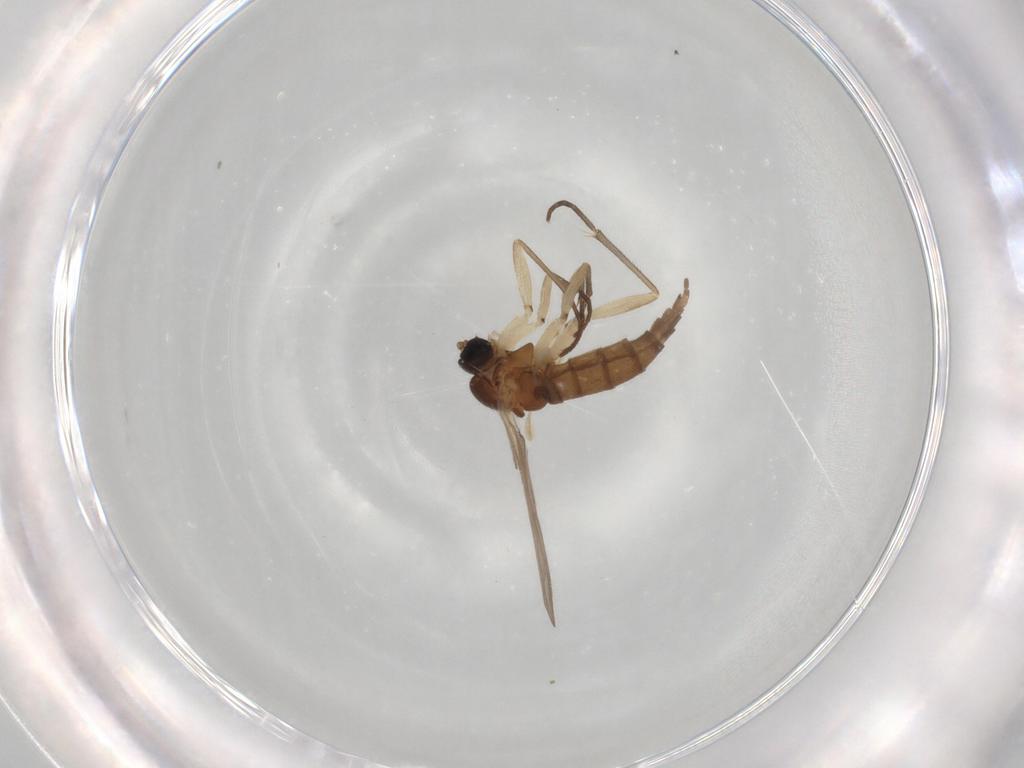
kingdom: Animalia
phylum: Arthropoda
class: Insecta
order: Diptera
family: Sciaridae
